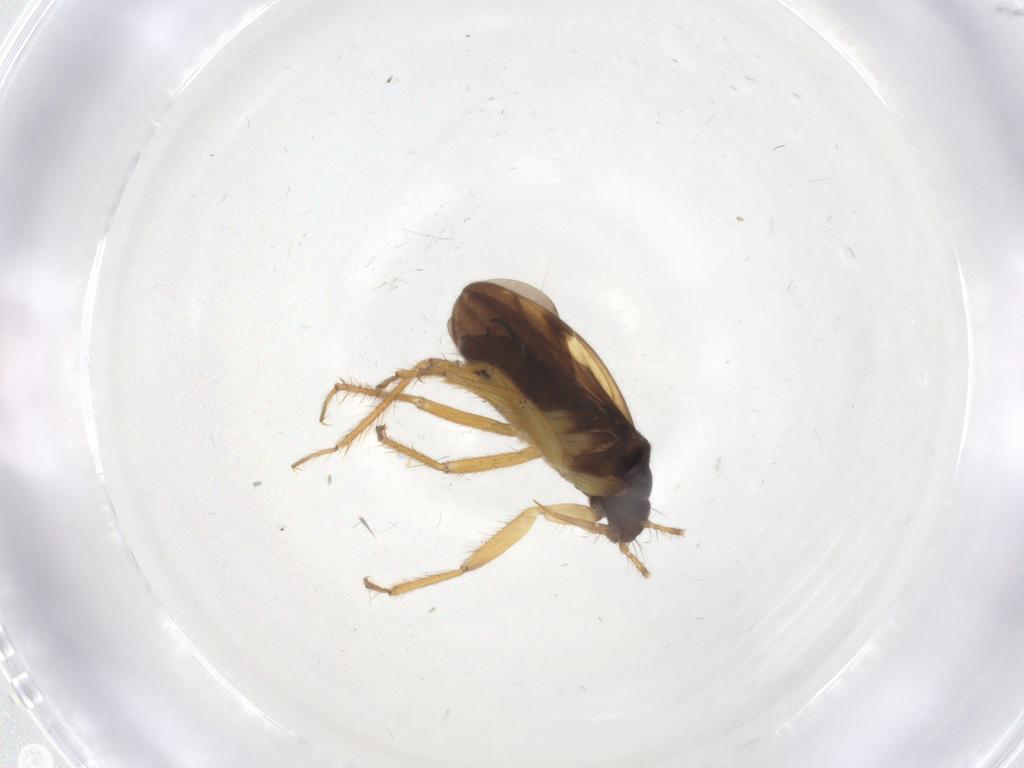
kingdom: Animalia
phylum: Arthropoda
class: Insecta
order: Hemiptera
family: Ceratocombidae
